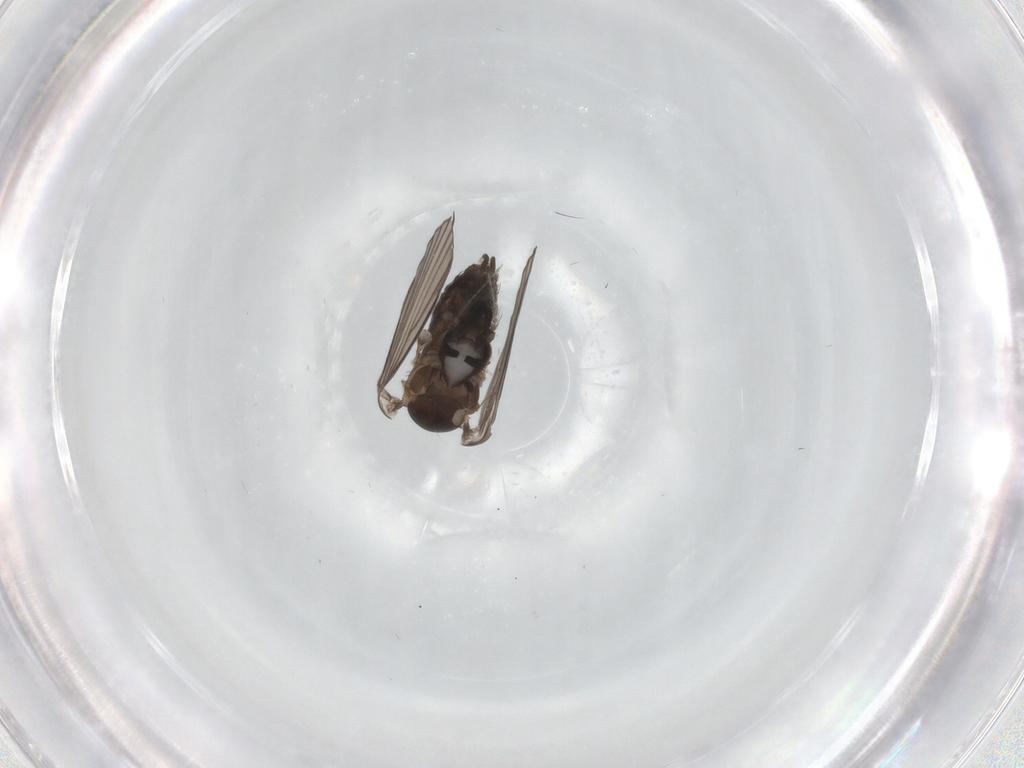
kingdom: Animalia
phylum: Arthropoda
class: Insecta
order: Diptera
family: Psychodidae
